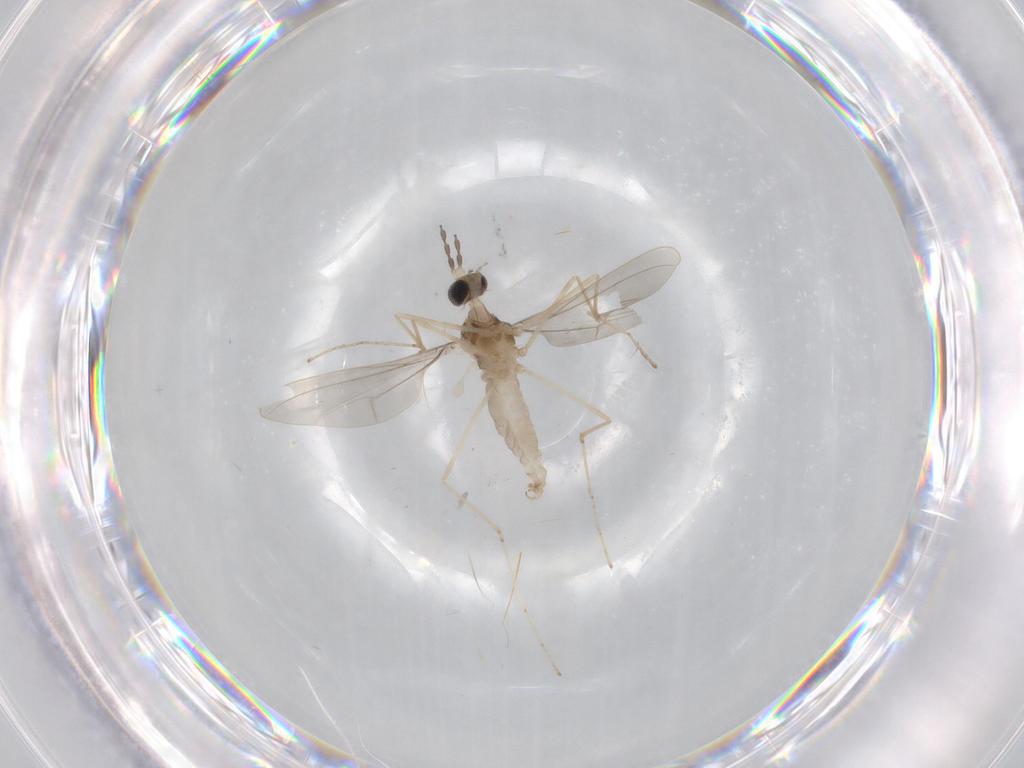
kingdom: Animalia
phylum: Arthropoda
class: Insecta
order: Diptera
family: Cecidomyiidae
